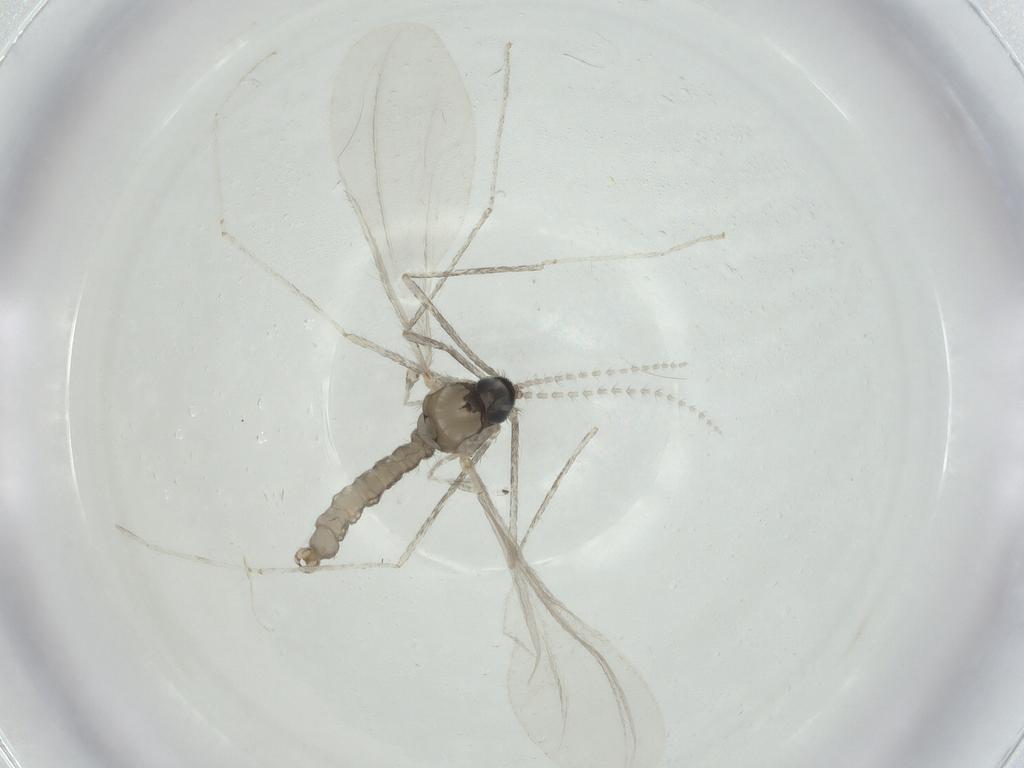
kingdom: Animalia
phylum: Arthropoda
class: Insecta
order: Diptera
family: Cecidomyiidae
